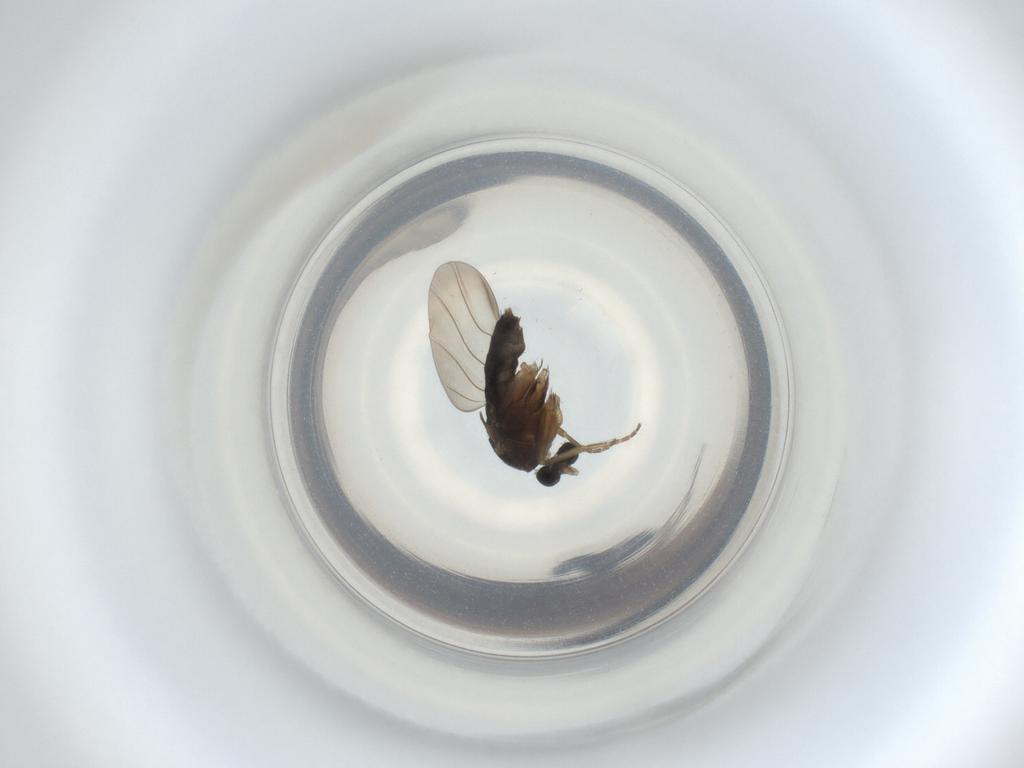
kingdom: Animalia
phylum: Arthropoda
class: Insecta
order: Diptera
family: Phoridae
